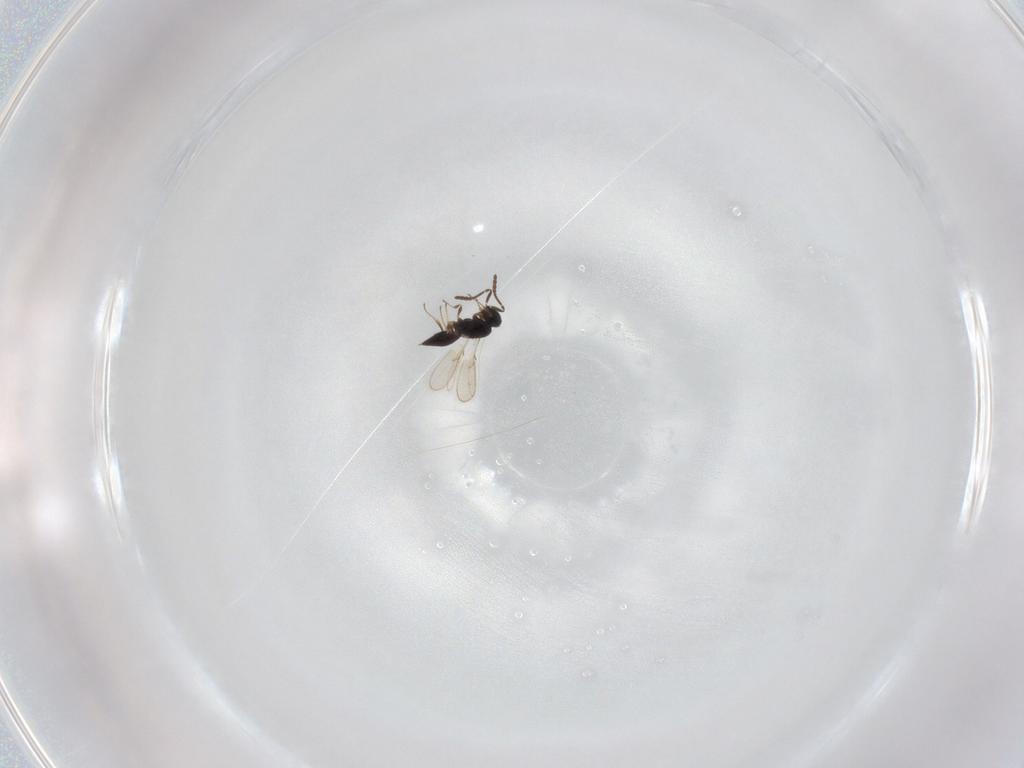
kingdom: Animalia
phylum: Arthropoda
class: Insecta
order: Hymenoptera
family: Scelionidae
